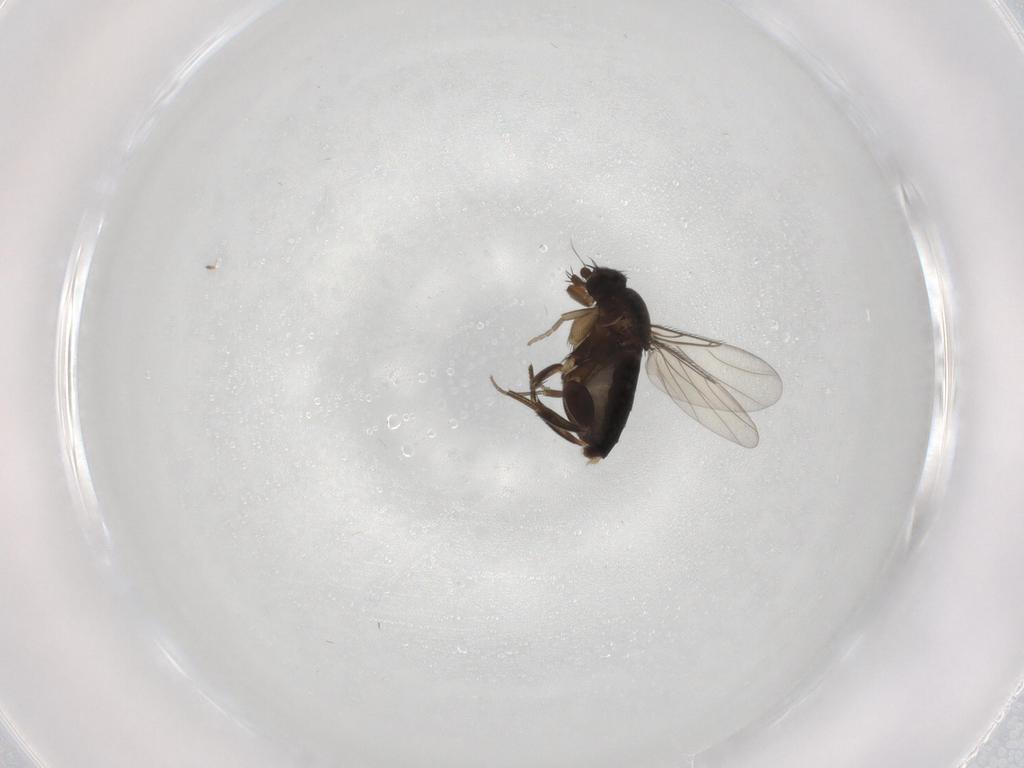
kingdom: Animalia
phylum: Arthropoda
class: Insecta
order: Diptera
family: Phoridae
